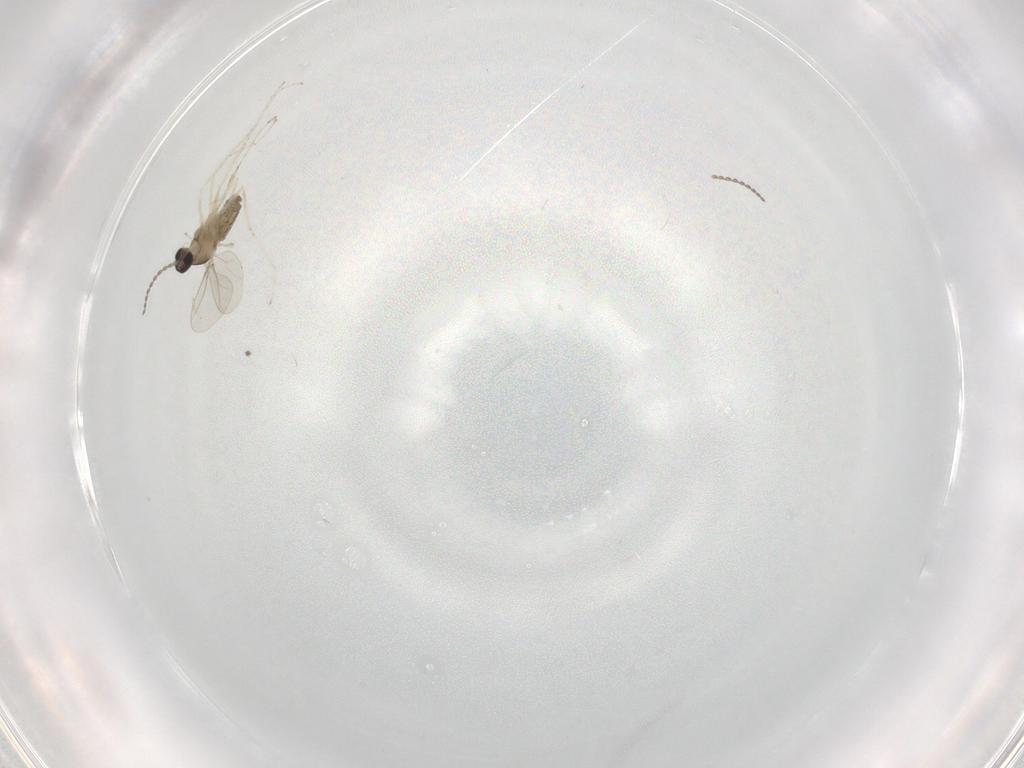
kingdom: Animalia
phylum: Arthropoda
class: Insecta
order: Diptera
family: Cecidomyiidae
